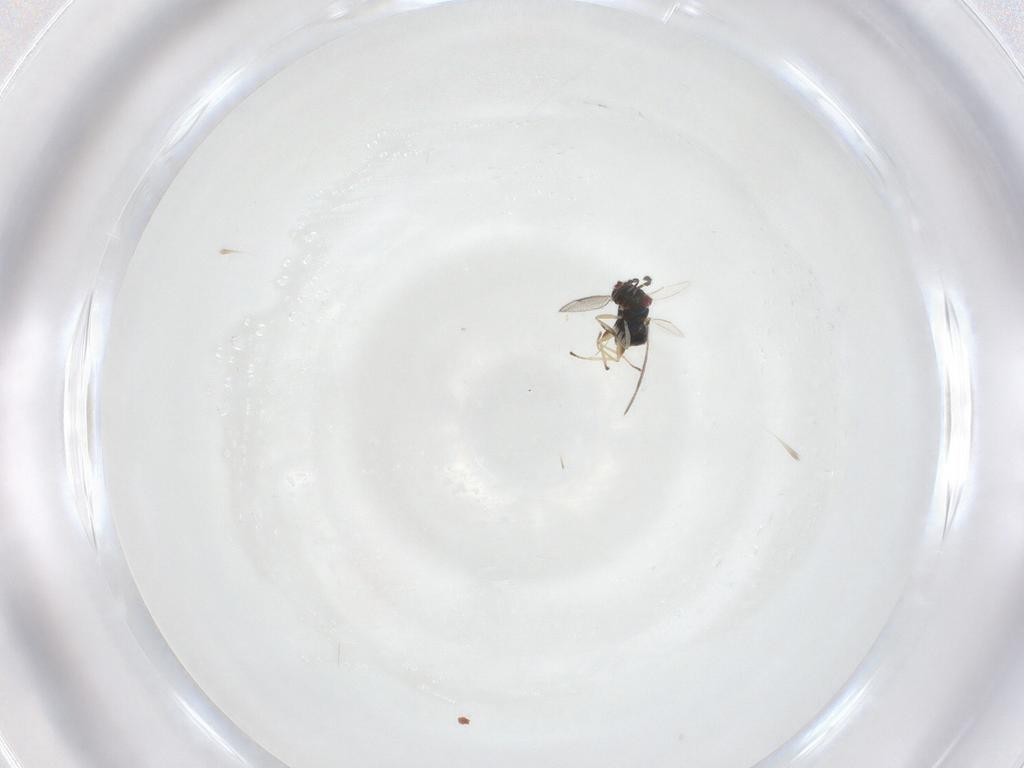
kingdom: Animalia
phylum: Arthropoda
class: Insecta
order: Hymenoptera
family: Formicidae
